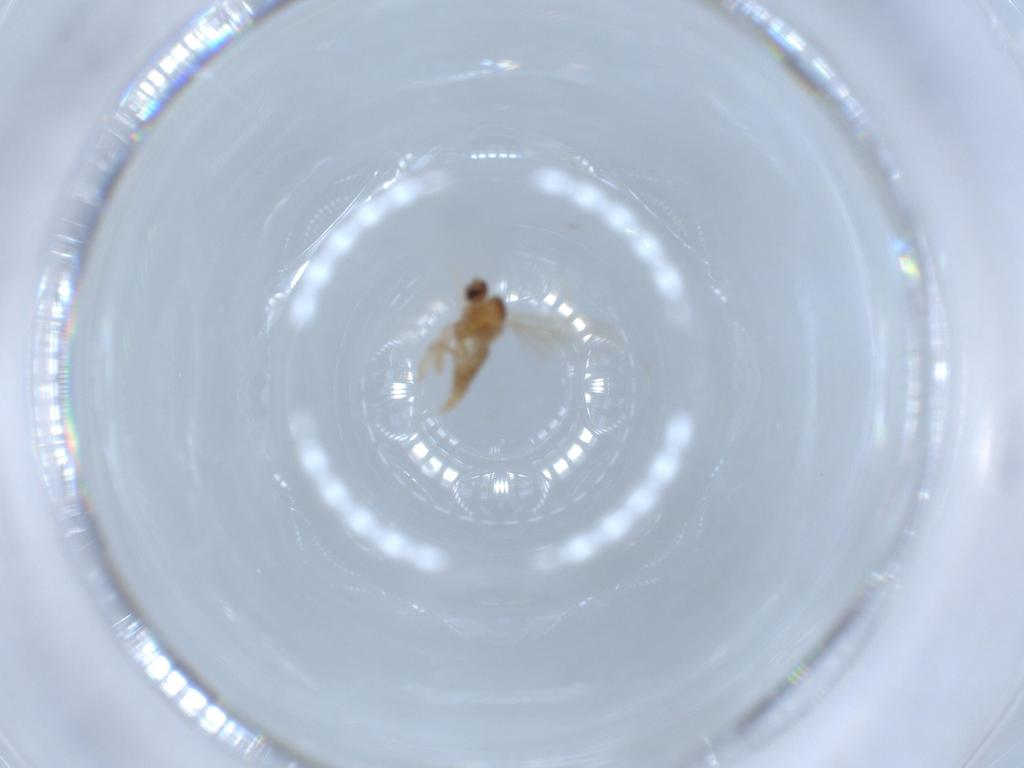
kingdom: Animalia
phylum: Arthropoda
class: Insecta
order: Diptera
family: Cecidomyiidae
